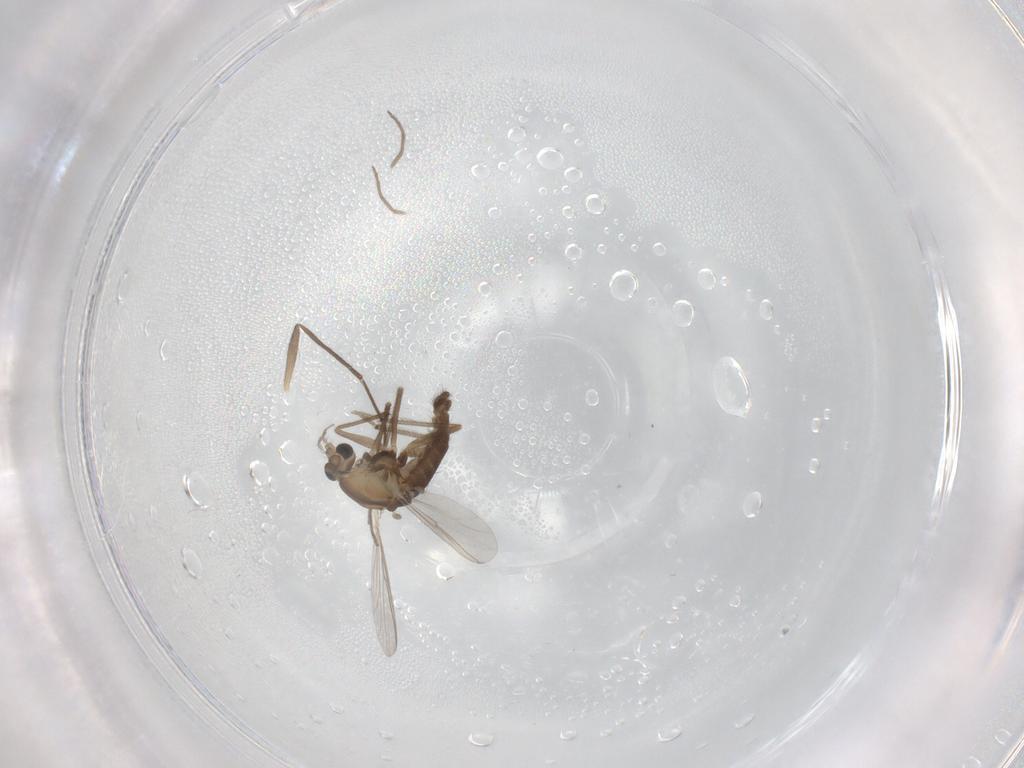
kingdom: Animalia
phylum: Arthropoda
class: Insecta
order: Diptera
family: Chironomidae
